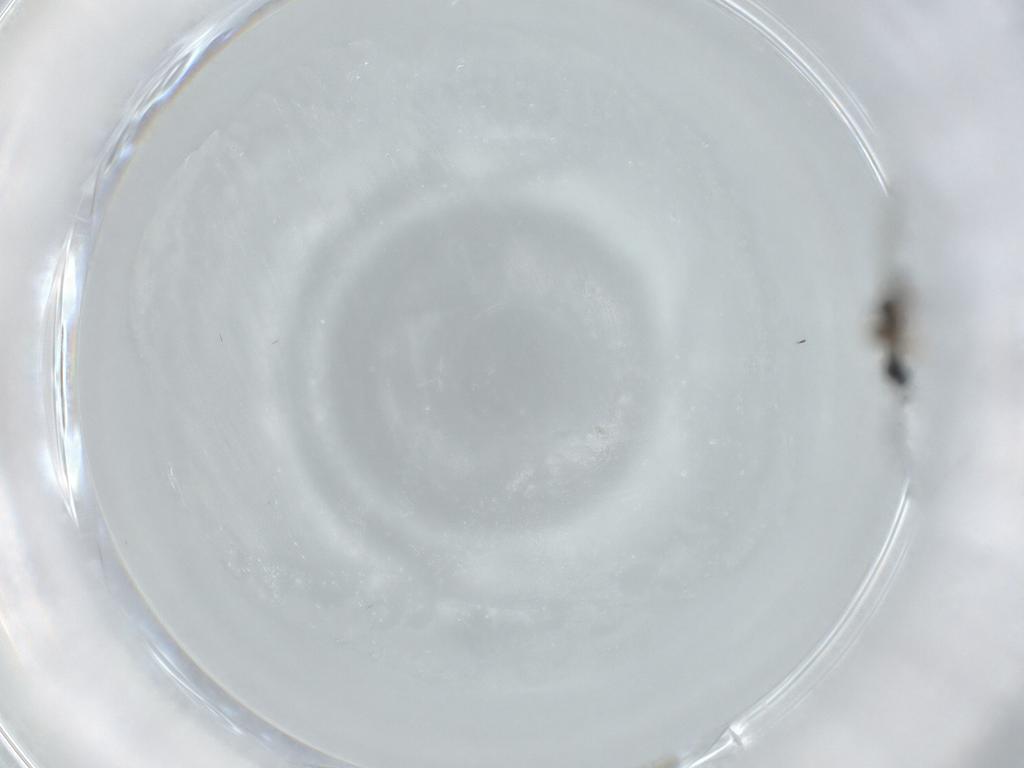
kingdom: Animalia
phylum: Arthropoda
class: Insecta
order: Hymenoptera
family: Figitidae
